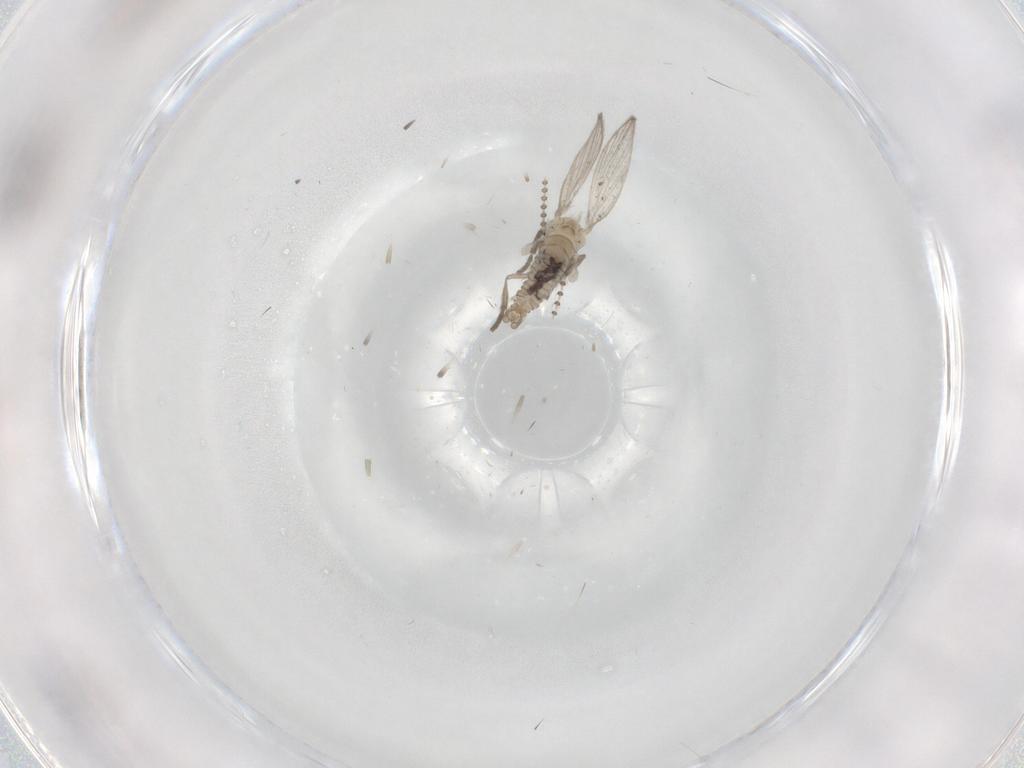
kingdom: Animalia
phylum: Arthropoda
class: Insecta
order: Diptera
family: Psychodidae
